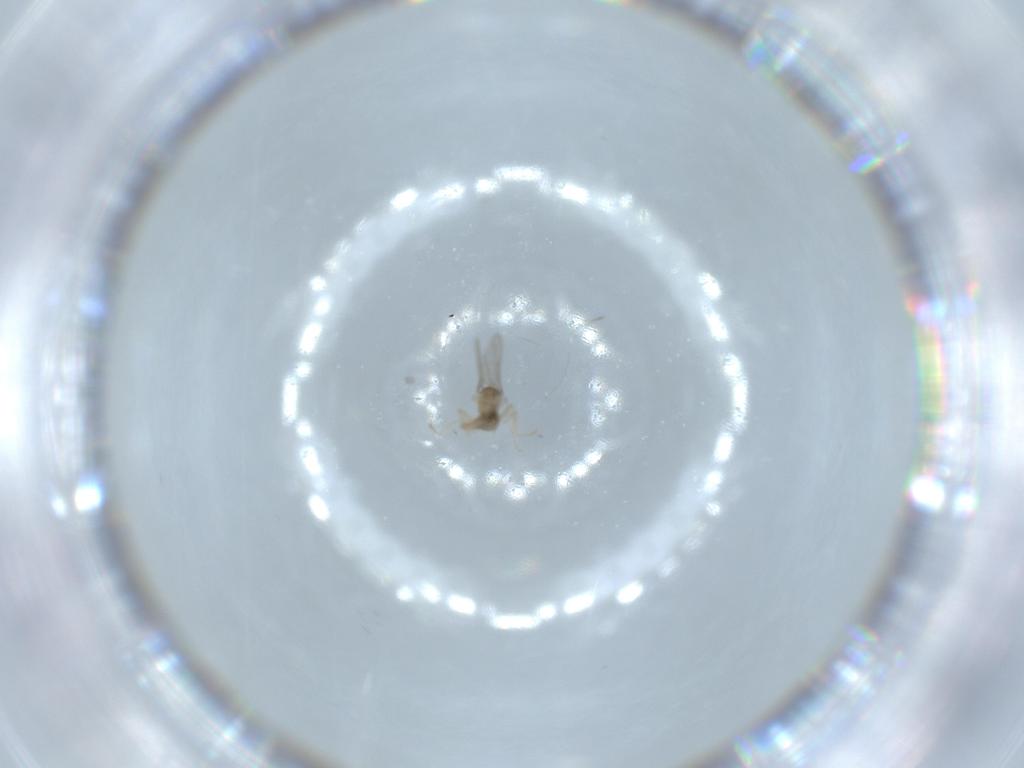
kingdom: Animalia
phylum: Arthropoda
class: Insecta
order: Diptera
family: Cecidomyiidae
